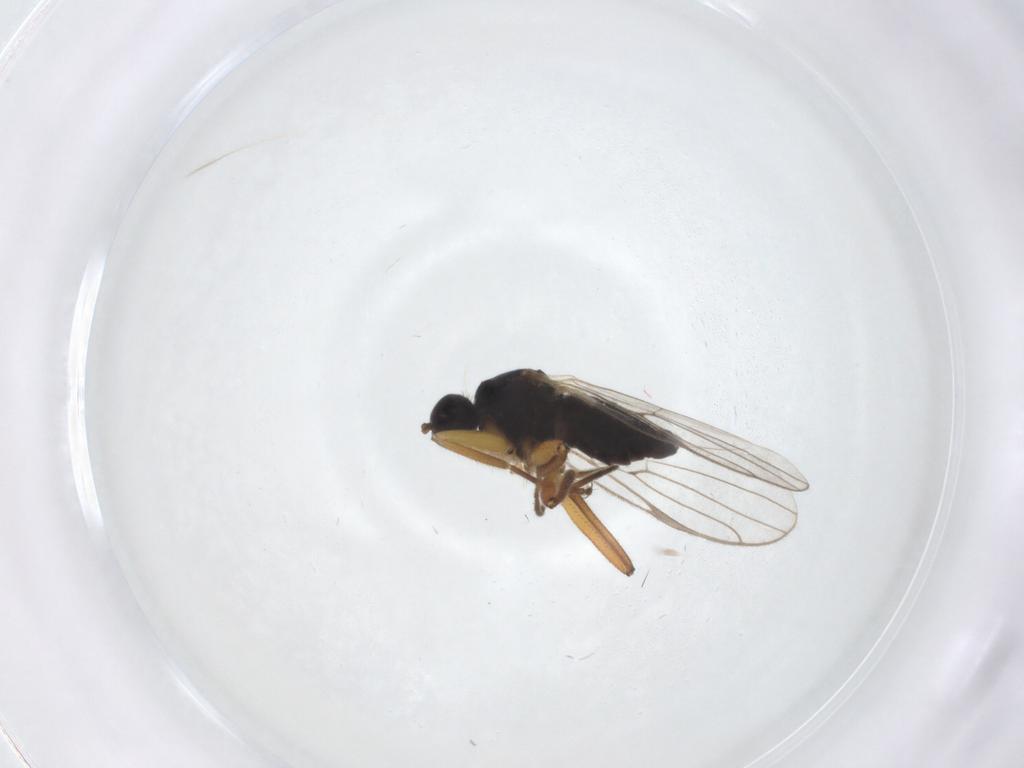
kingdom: Animalia
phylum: Arthropoda
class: Insecta
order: Diptera
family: Hybotidae
